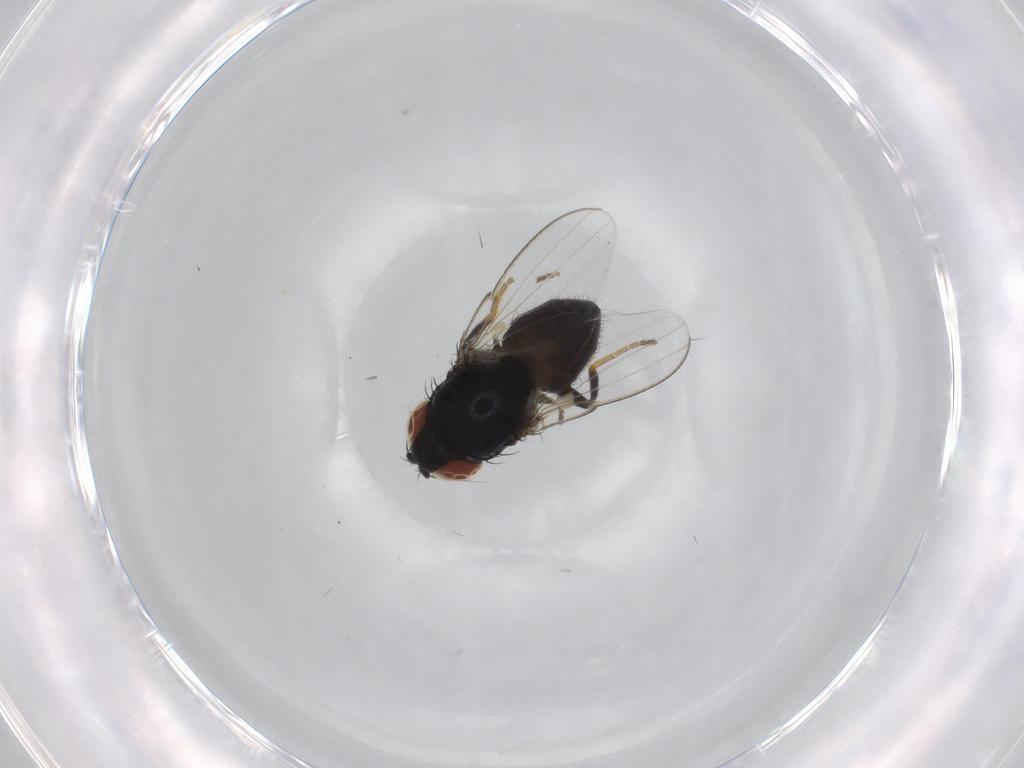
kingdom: Animalia
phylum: Arthropoda
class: Insecta
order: Diptera
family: Milichiidae
